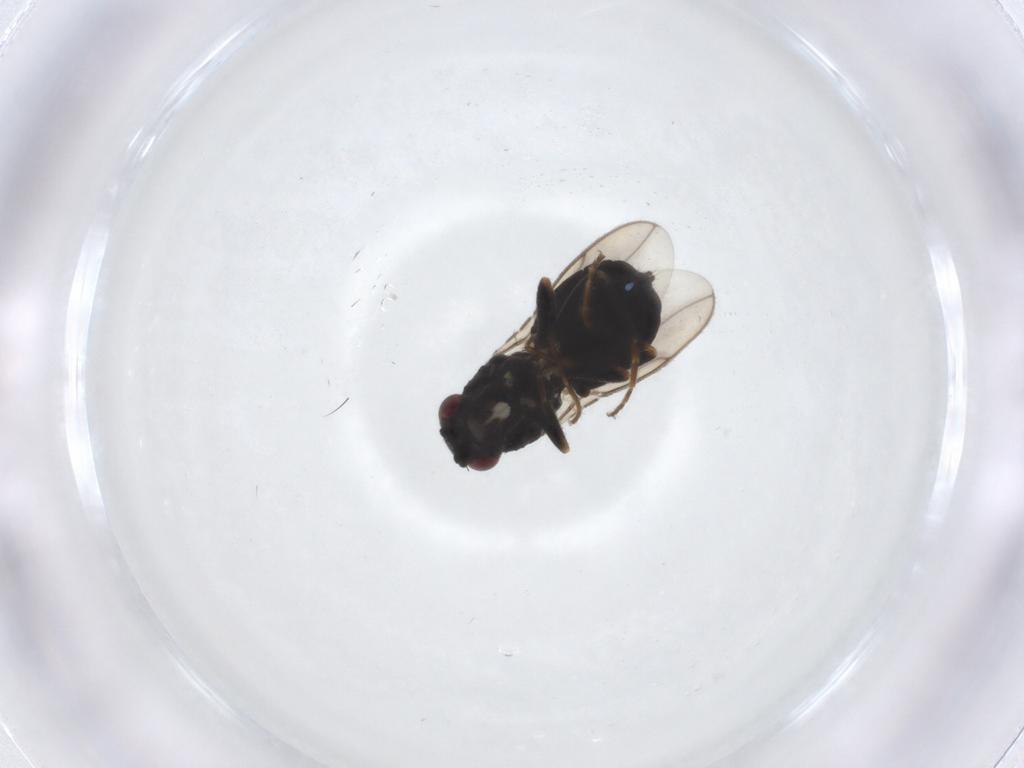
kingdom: Animalia
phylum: Arthropoda
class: Insecta
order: Diptera
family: Sphaeroceridae
